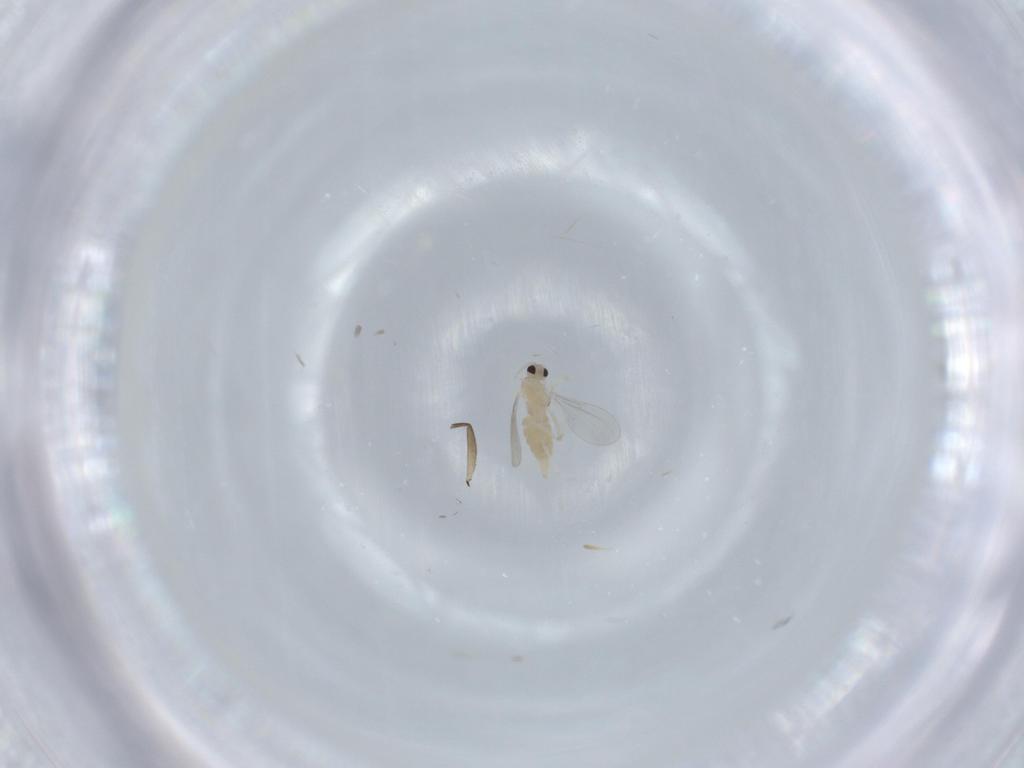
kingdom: Animalia
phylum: Arthropoda
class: Insecta
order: Diptera
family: Cecidomyiidae
